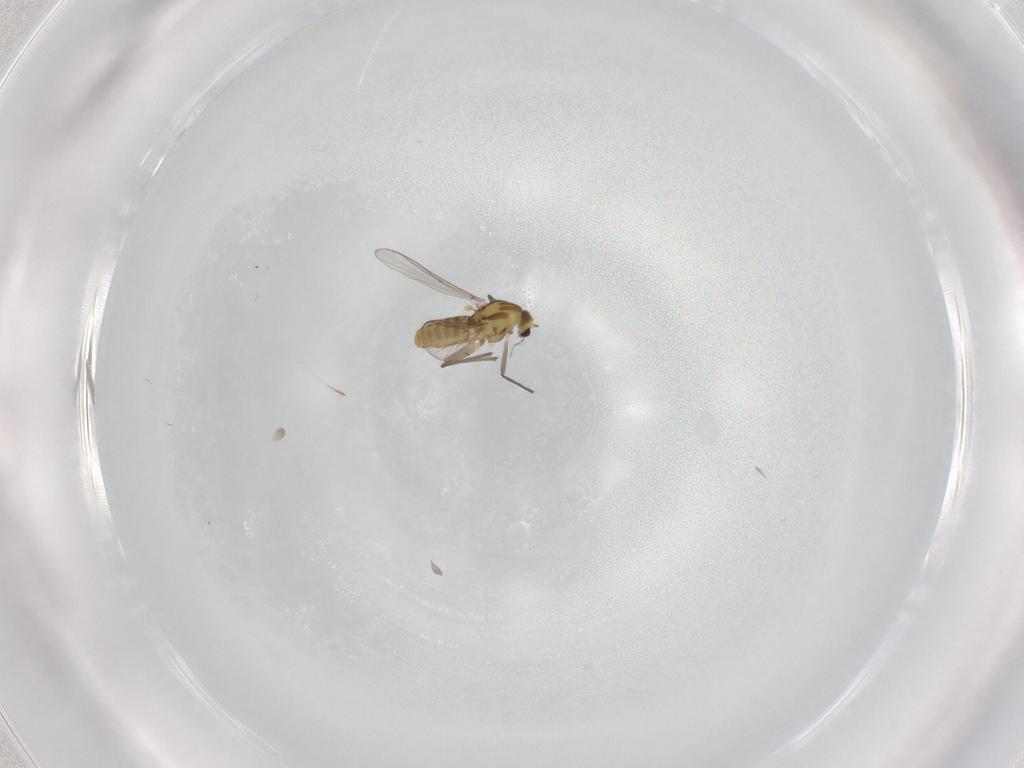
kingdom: Animalia
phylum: Arthropoda
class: Insecta
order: Diptera
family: Chironomidae
